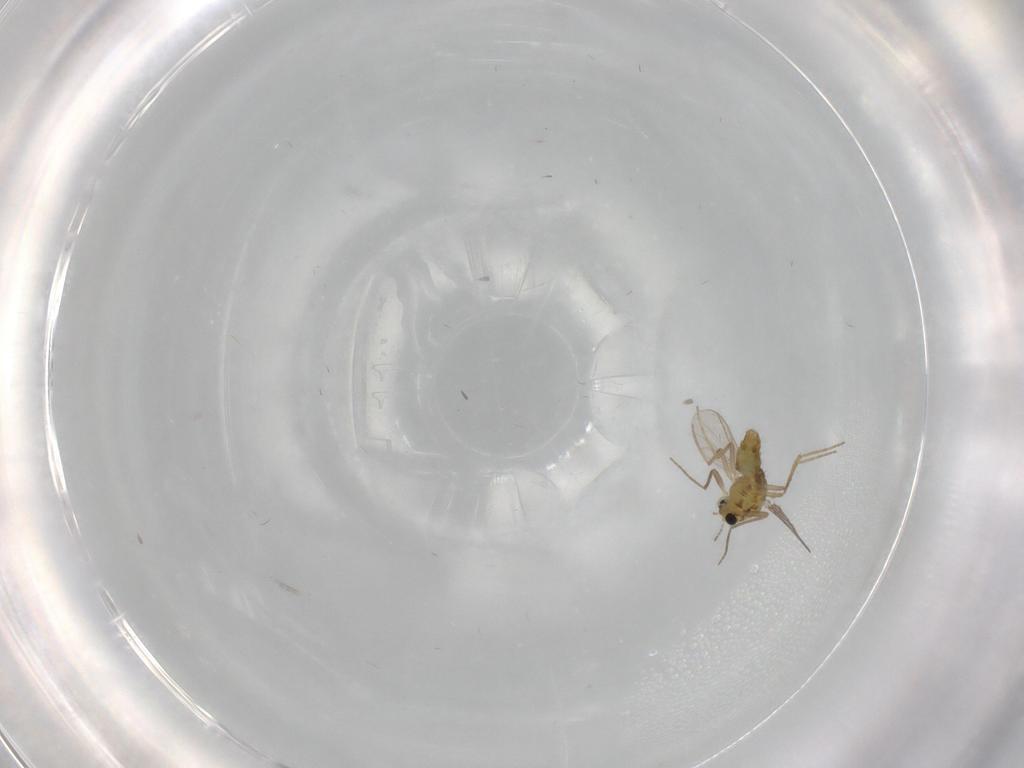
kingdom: Animalia
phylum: Arthropoda
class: Insecta
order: Diptera
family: Chironomidae
